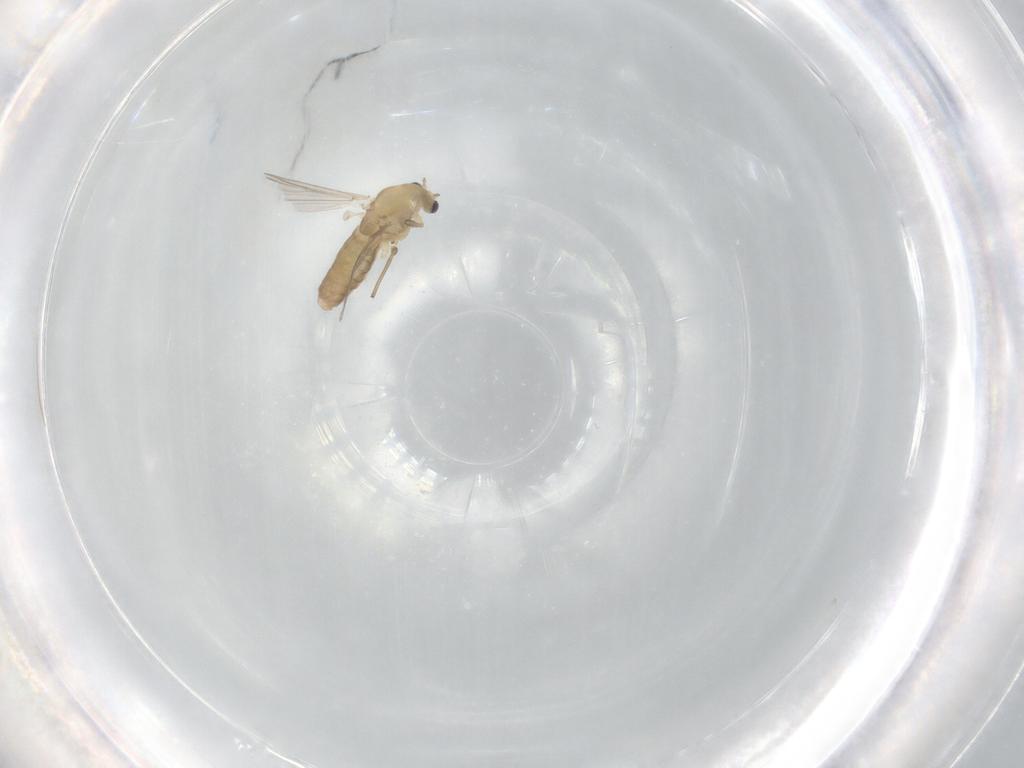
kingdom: Animalia
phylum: Arthropoda
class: Insecta
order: Diptera
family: Chironomidae
